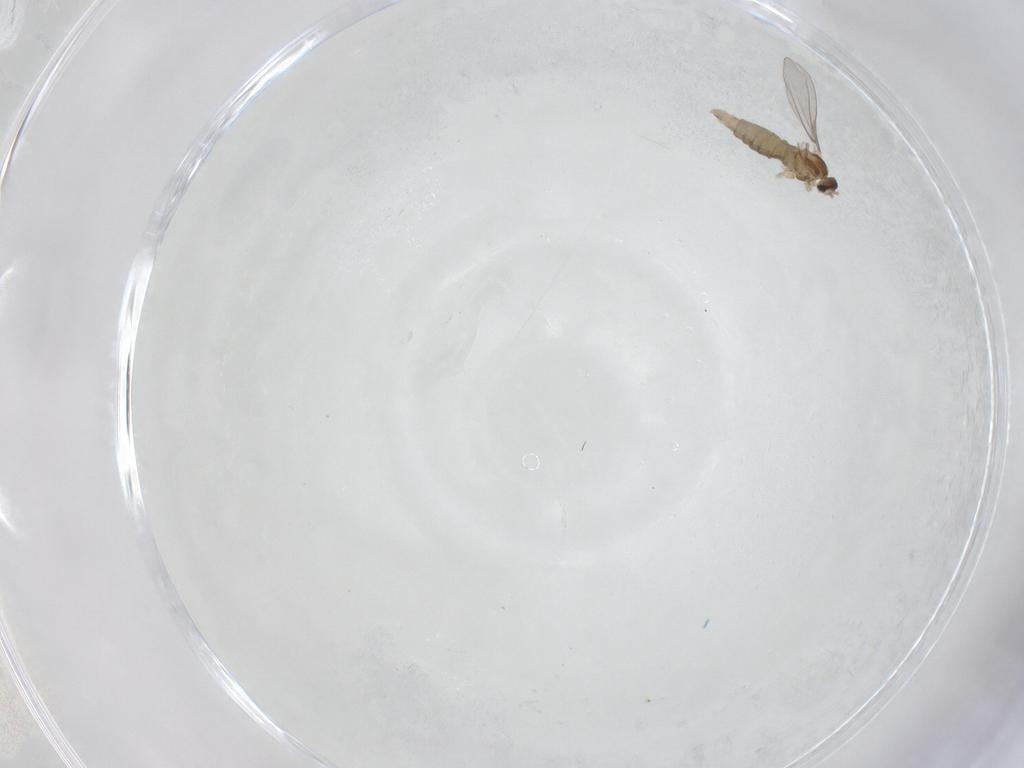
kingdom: Animalia
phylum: Arthropoda
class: Insecta
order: Diptera
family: Cecidomyiidae
